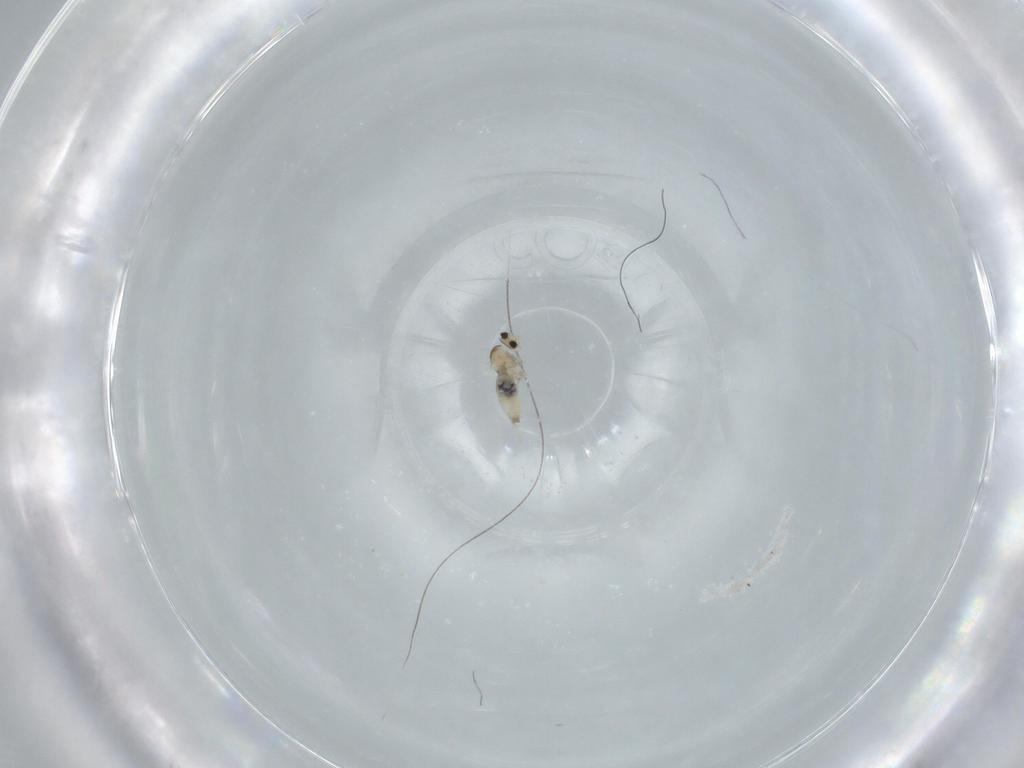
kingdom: Animalia
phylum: Arthropoda
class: Insecta
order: Diptera
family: Cecidomyiidae
